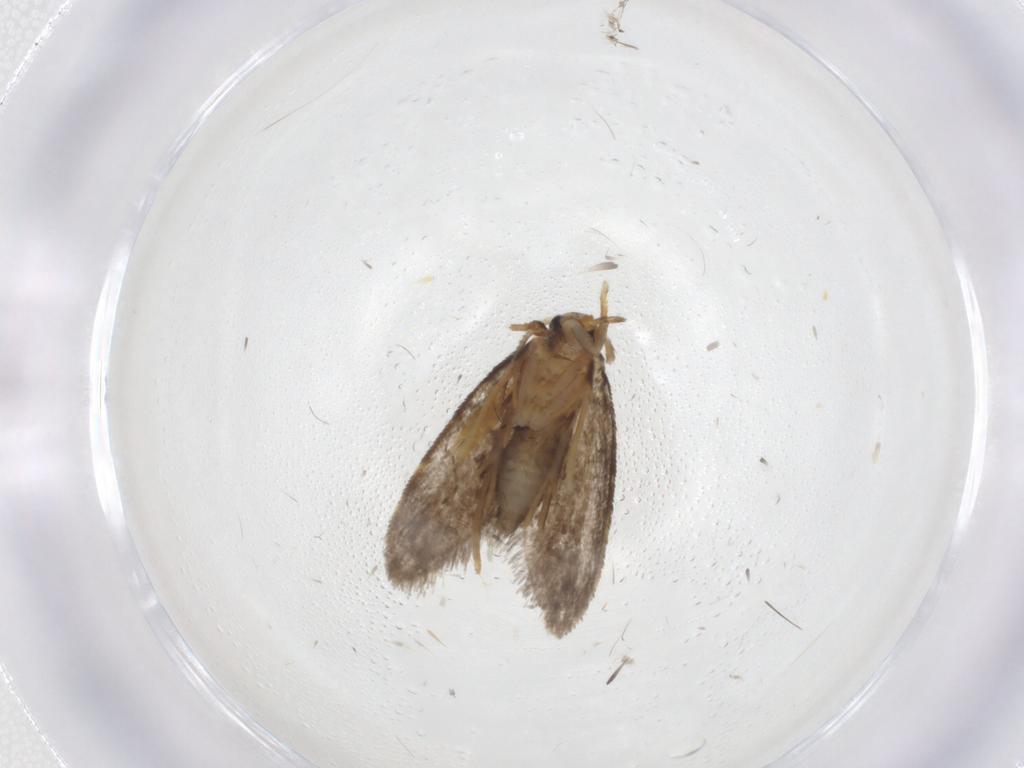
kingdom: Animalia
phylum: Arthropoda
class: Insecta
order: Lepidoptera
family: Psychidae
